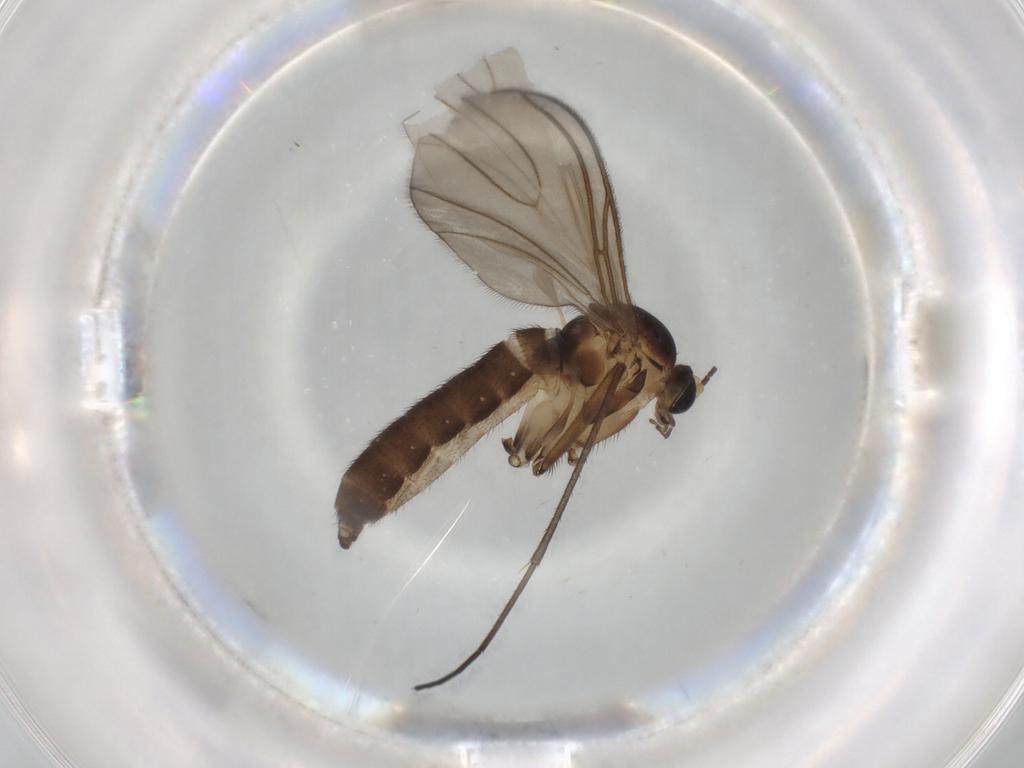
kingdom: Animalia
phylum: Arthropoda
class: Insecta
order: Diptera
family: Sciaridae
